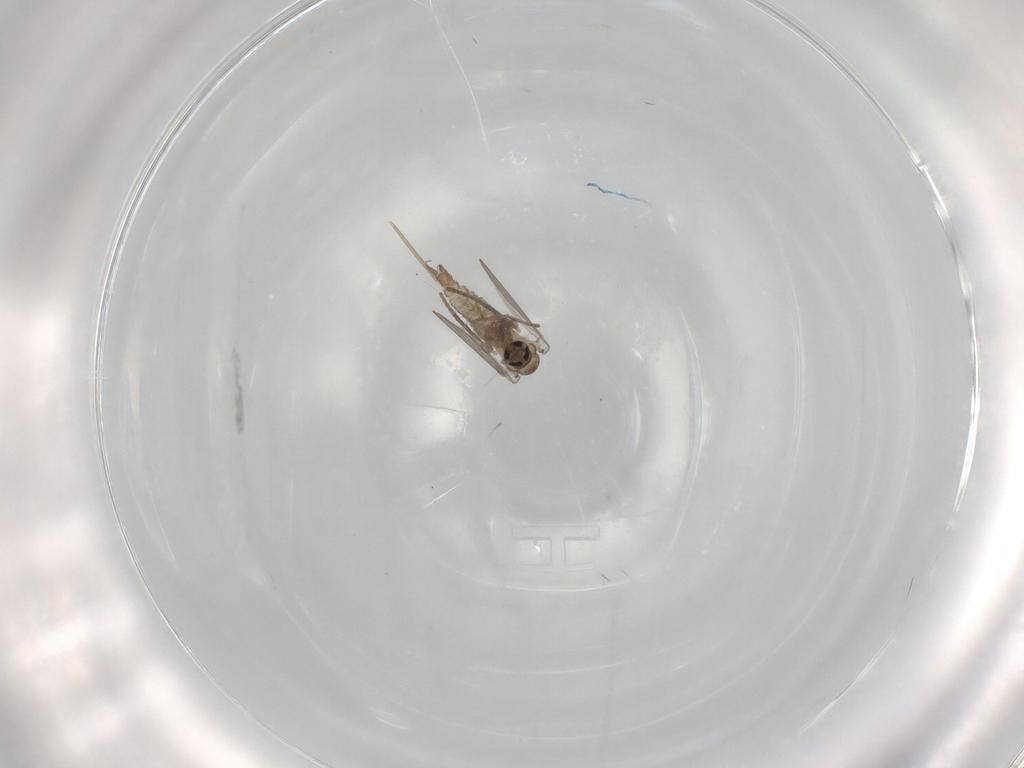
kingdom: Animalia
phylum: Arthropoda
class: Insecta
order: Diptera
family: Psychodidae
